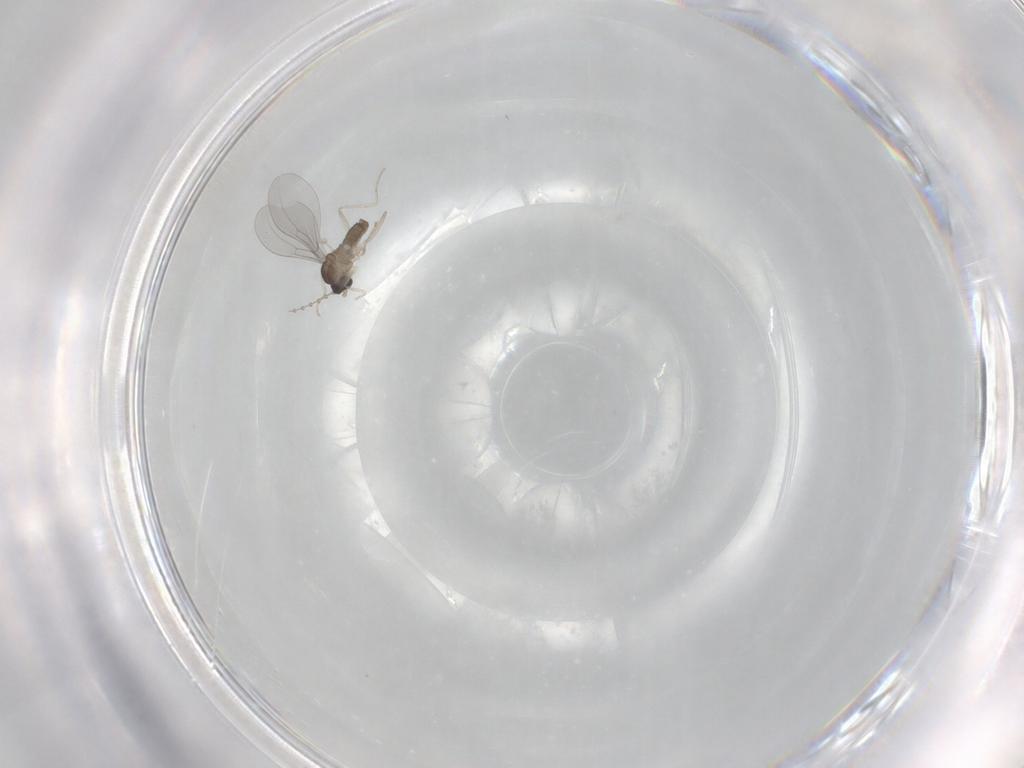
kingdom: Animalia
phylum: Arthropoda
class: Insecta
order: Diptera
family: Cecidomyiidae
